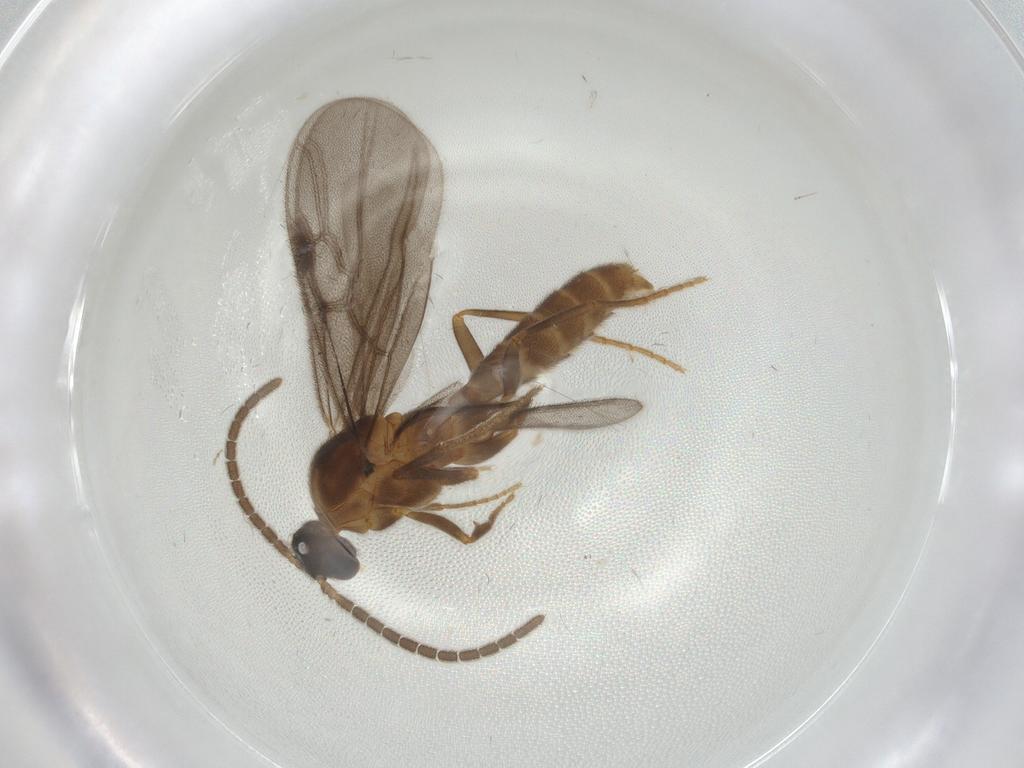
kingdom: Animalia
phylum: Arthropoda
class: Insecta
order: Hymenoptera
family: Formicidae
